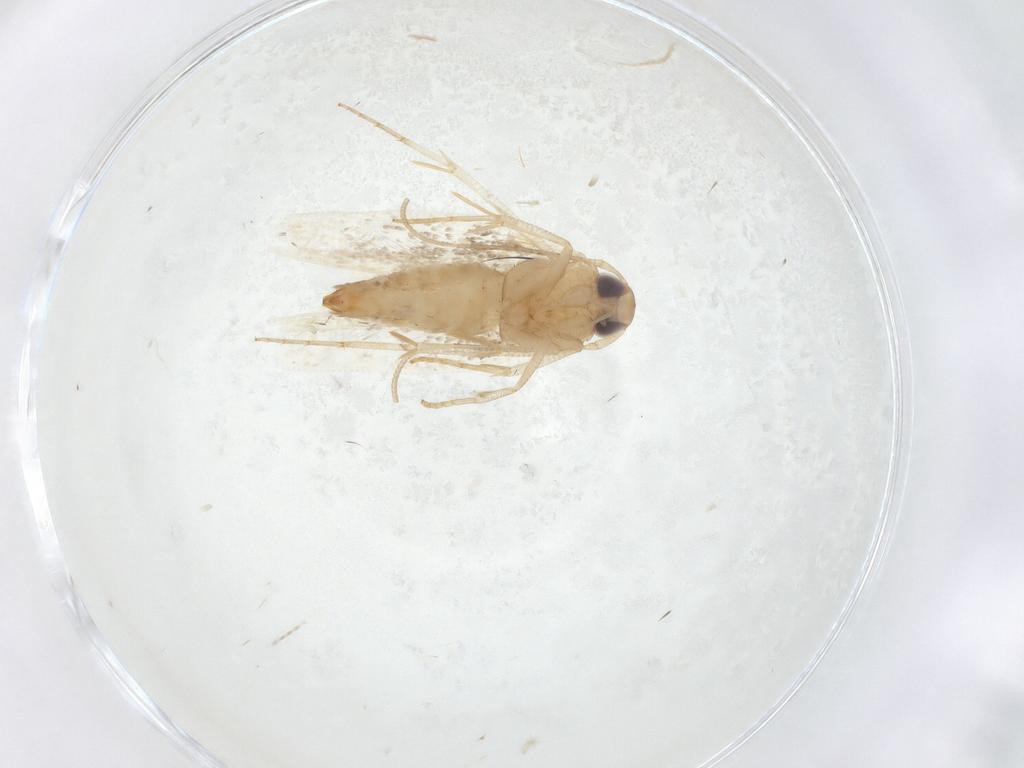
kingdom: Animalia
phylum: Arthropoda
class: Insecta
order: Lepidoptera
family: Cosmopterigidae
